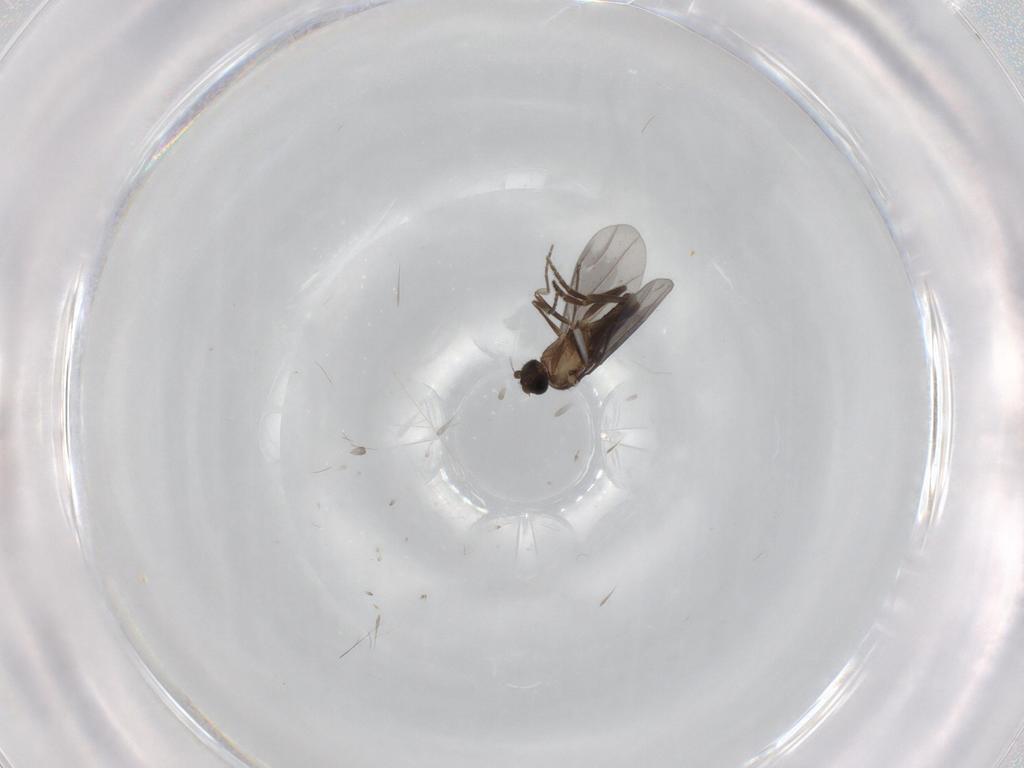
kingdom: Animalia
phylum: Arthropoda
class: Insecta
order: Diptera
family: Phoridae
